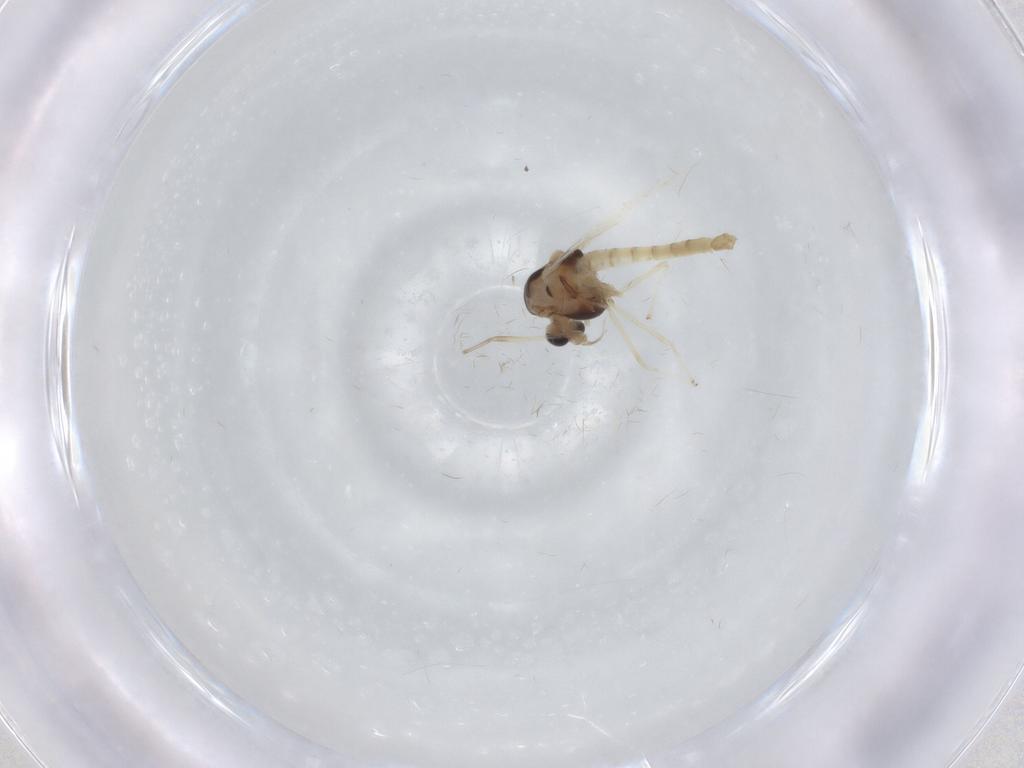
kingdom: Animalia
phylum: Arthropoda
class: Insecta
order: Diptera
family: Chironomidae
